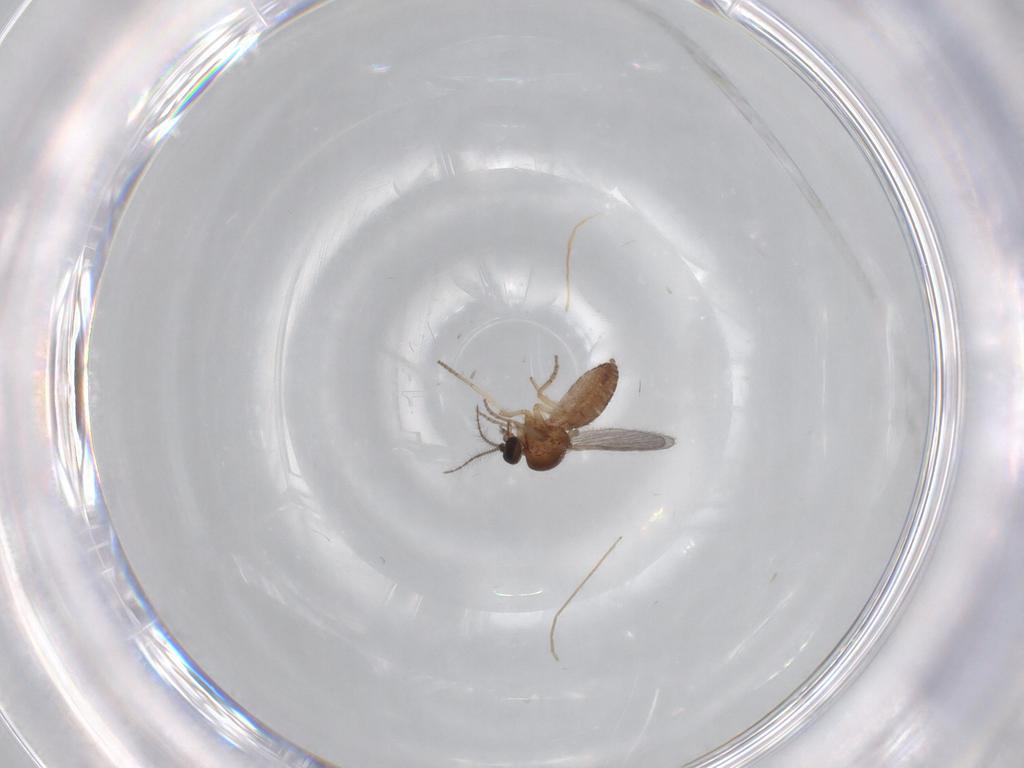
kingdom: Animalia
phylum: Arthropoda
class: Insecta
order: Diptera
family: Ceratopogonidae
